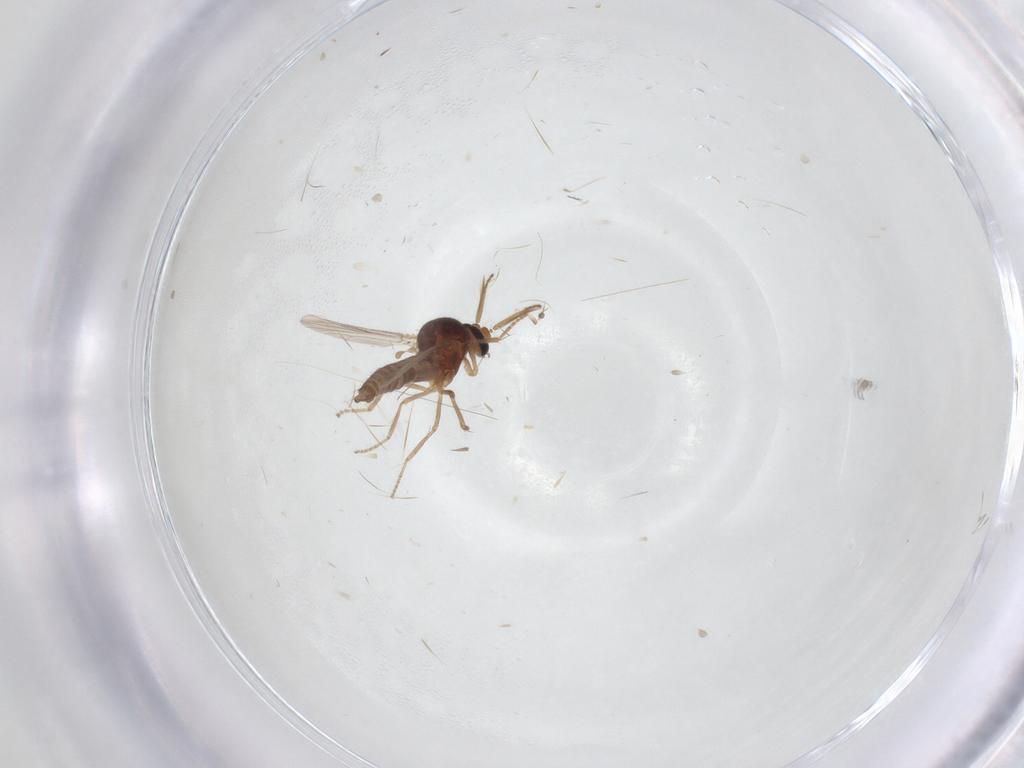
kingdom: Animalia
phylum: Arthropoda
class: Insecta
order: Diptera
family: Ceratopogonidae
